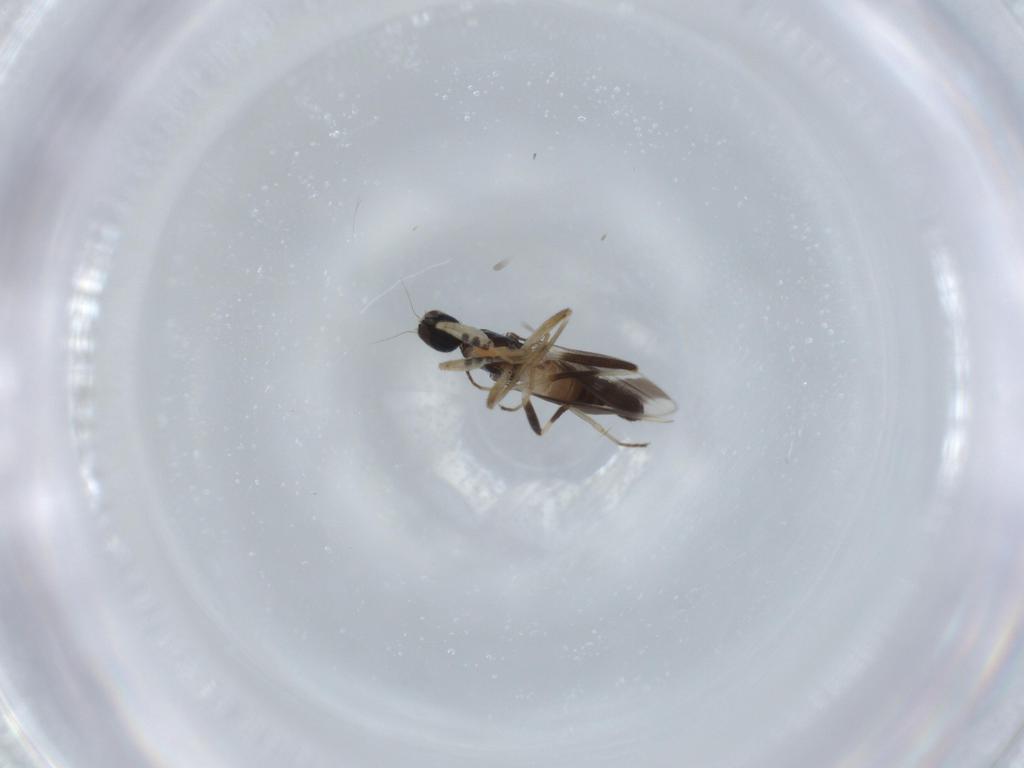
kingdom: Animalia
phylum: Arthropoda
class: Insecta
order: Diptera
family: Hybotidae
